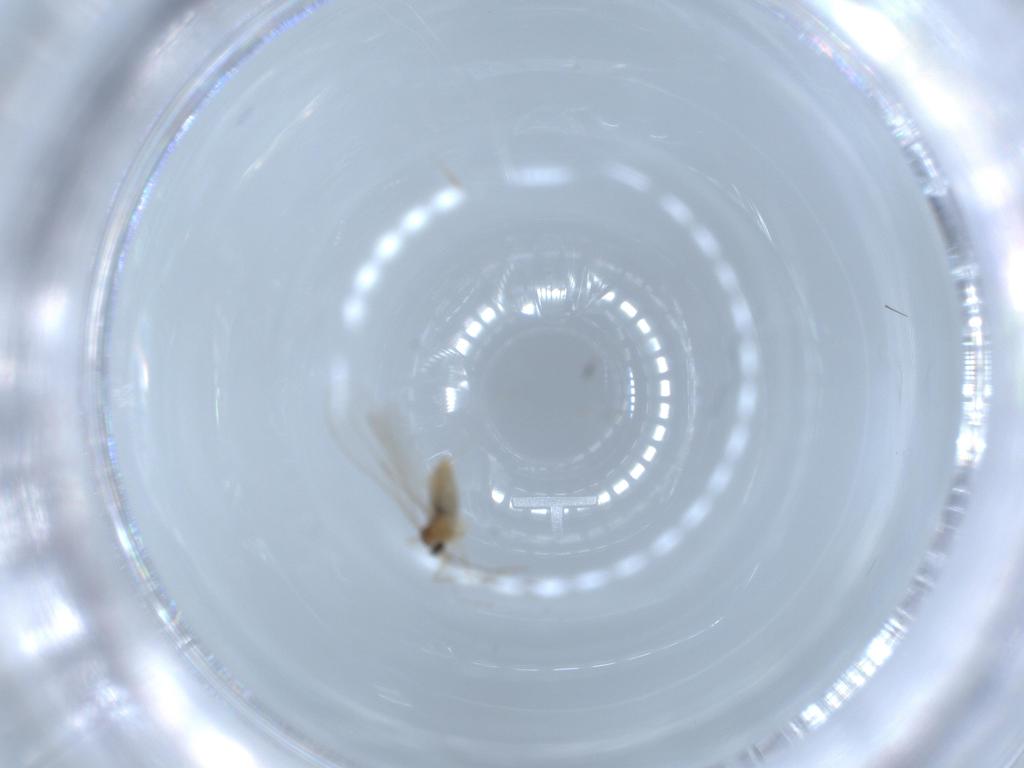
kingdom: Animalia
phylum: Arthropoda
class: Insecta
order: Diptera
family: Cecidomyiidae
